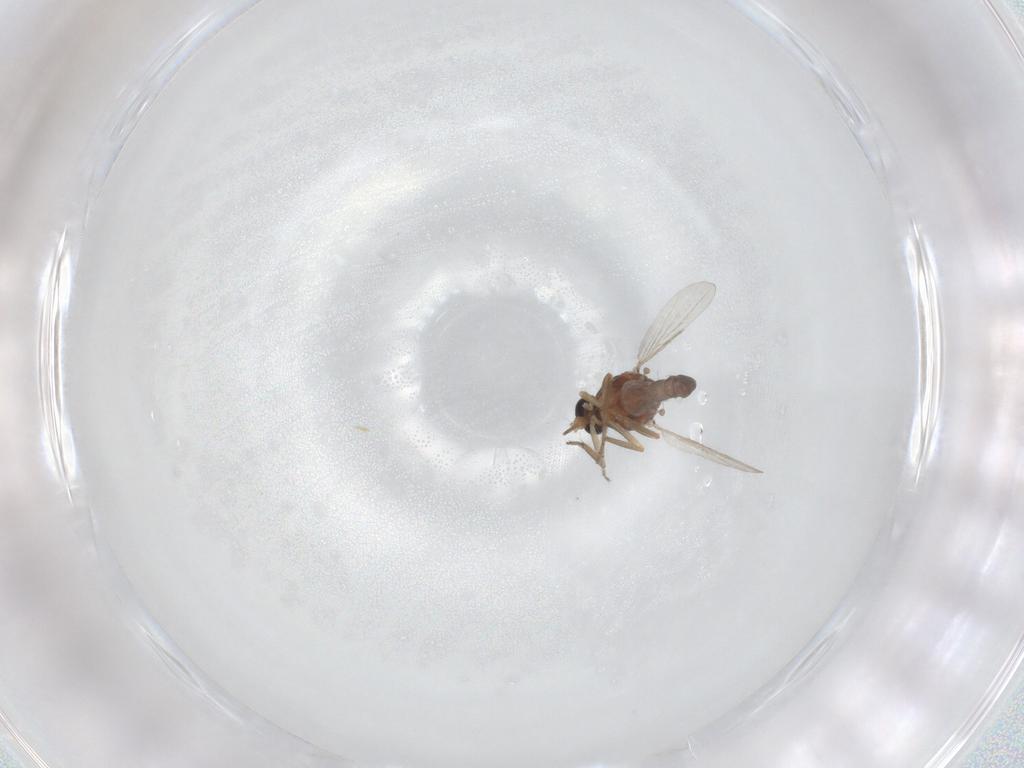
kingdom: Animalia
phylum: Arthropoda
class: Insecta
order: Diptera
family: Ceratopogonidae
